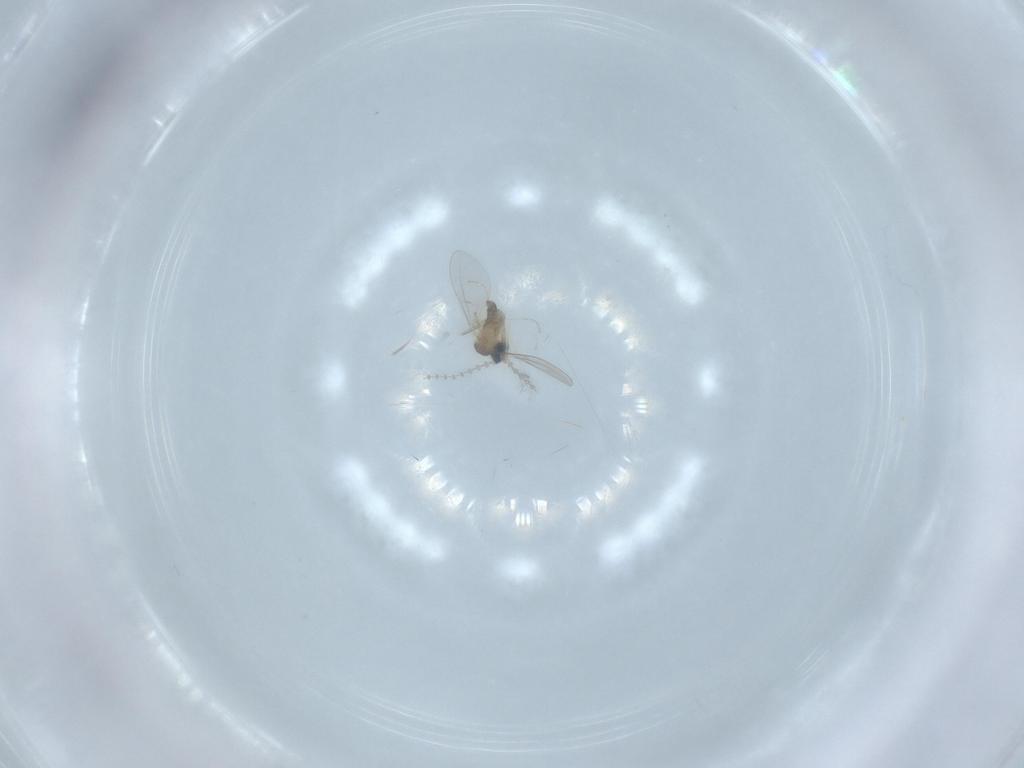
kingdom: Animalia
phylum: Arthropoda
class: Insecta
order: Diptera
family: Cecidomyiidae
